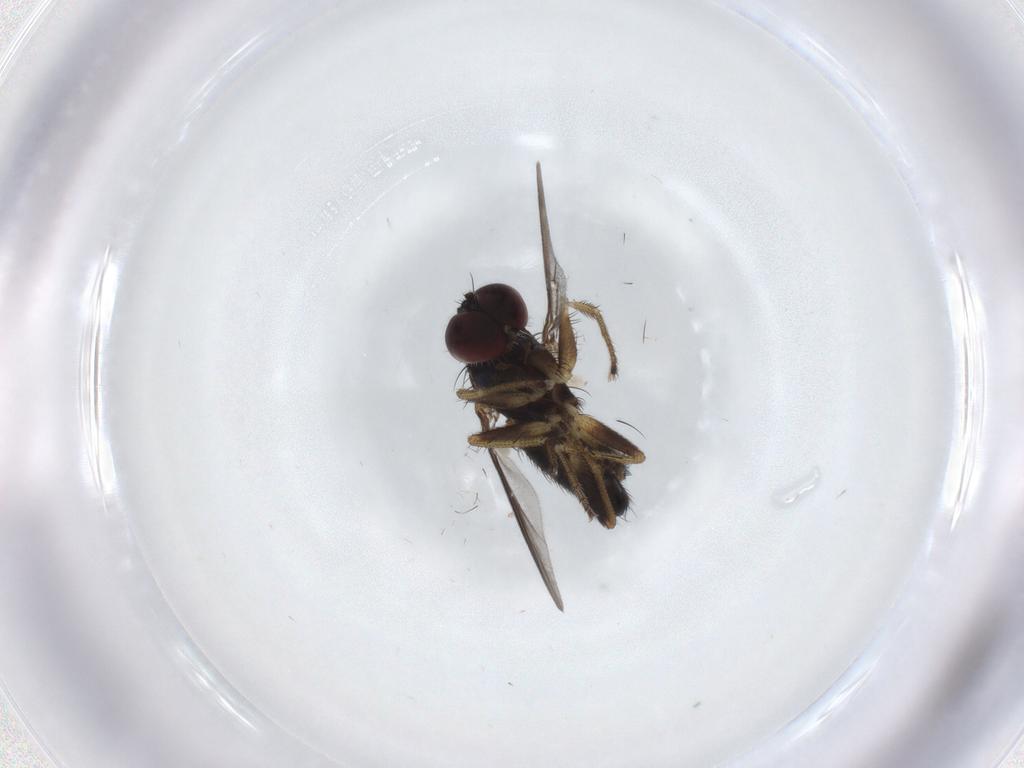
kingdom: Animalia
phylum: Arthropoda
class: Insecta
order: Diptera
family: Dolichopodidae
